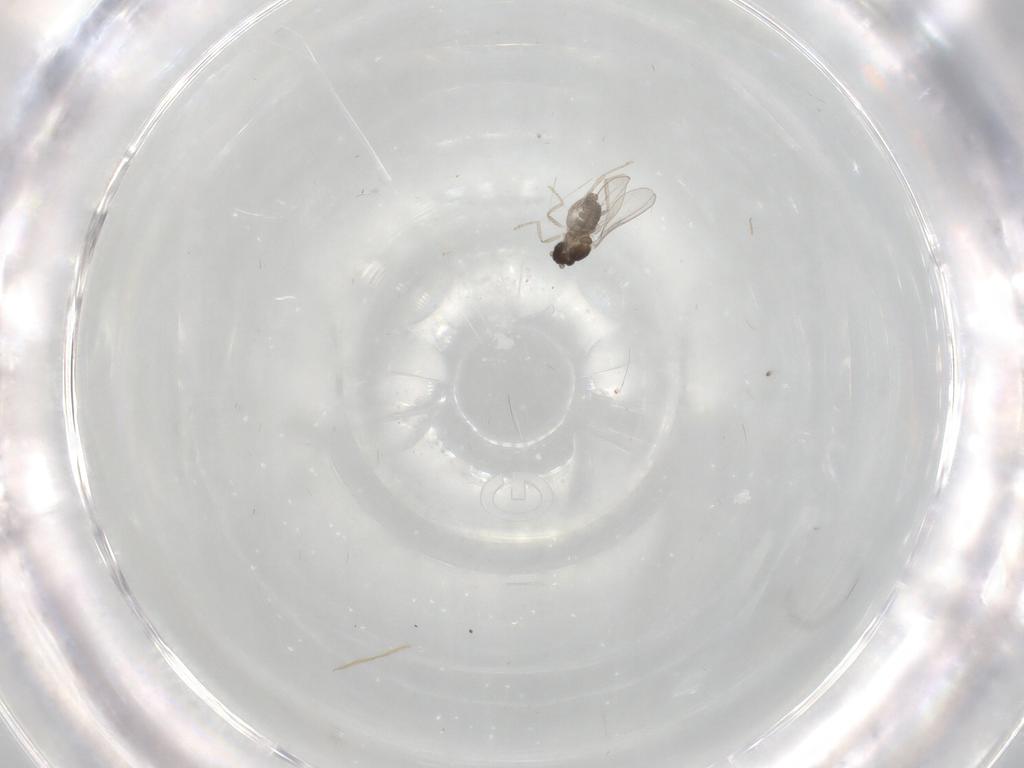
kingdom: Animalia
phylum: Arthropoda
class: Insecta
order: Diptera
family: Cecidomyiidae
